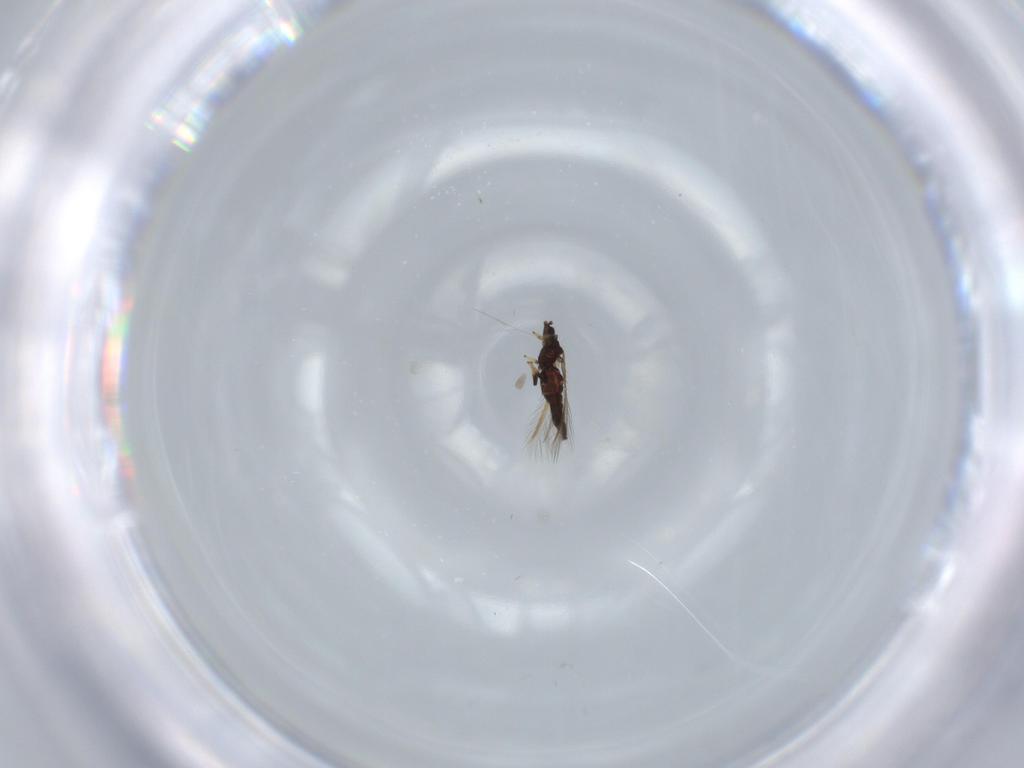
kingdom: Animalia
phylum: Arthropoda
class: Insecta
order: Thysanoptera
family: Thripidae
